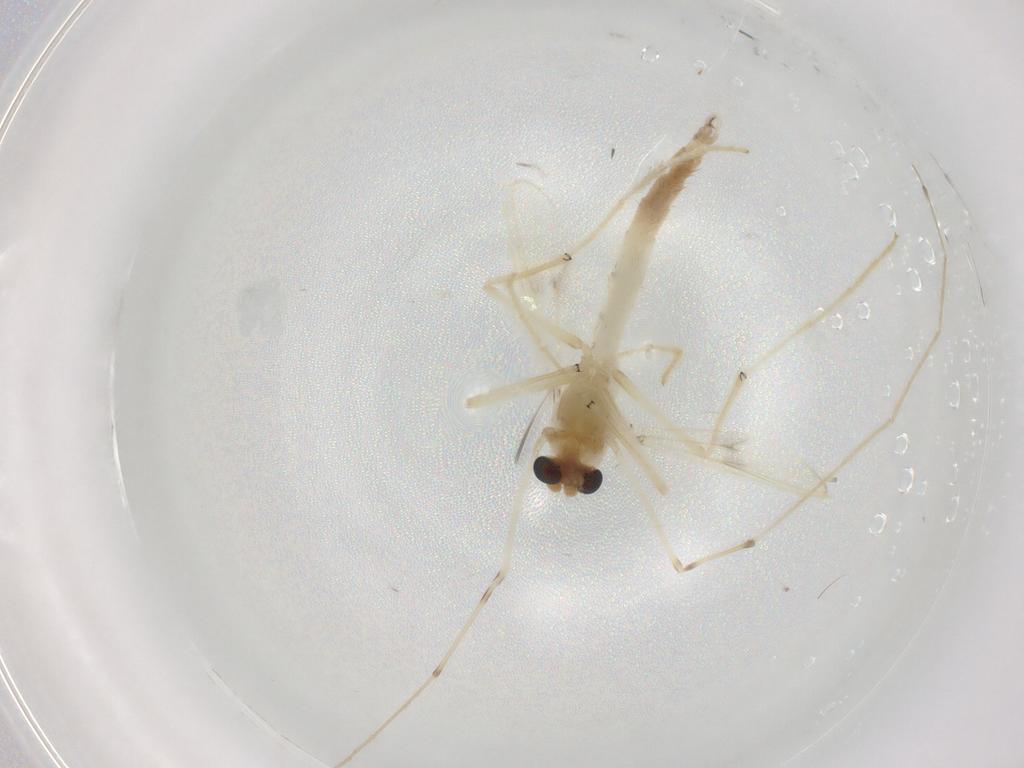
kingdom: Animalia
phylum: Arthropoda
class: Insecta
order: Diptera
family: Chironomidae
